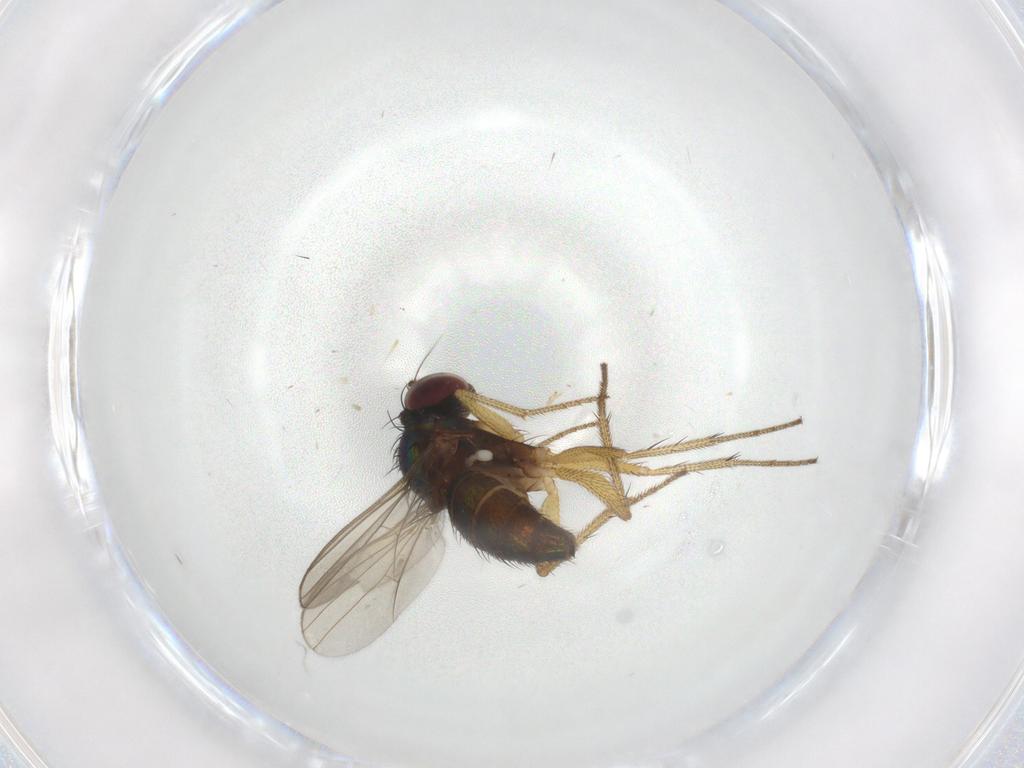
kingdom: Animalia
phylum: Arthropoda
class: Insecta
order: Diptera
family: Dolichopodidae
